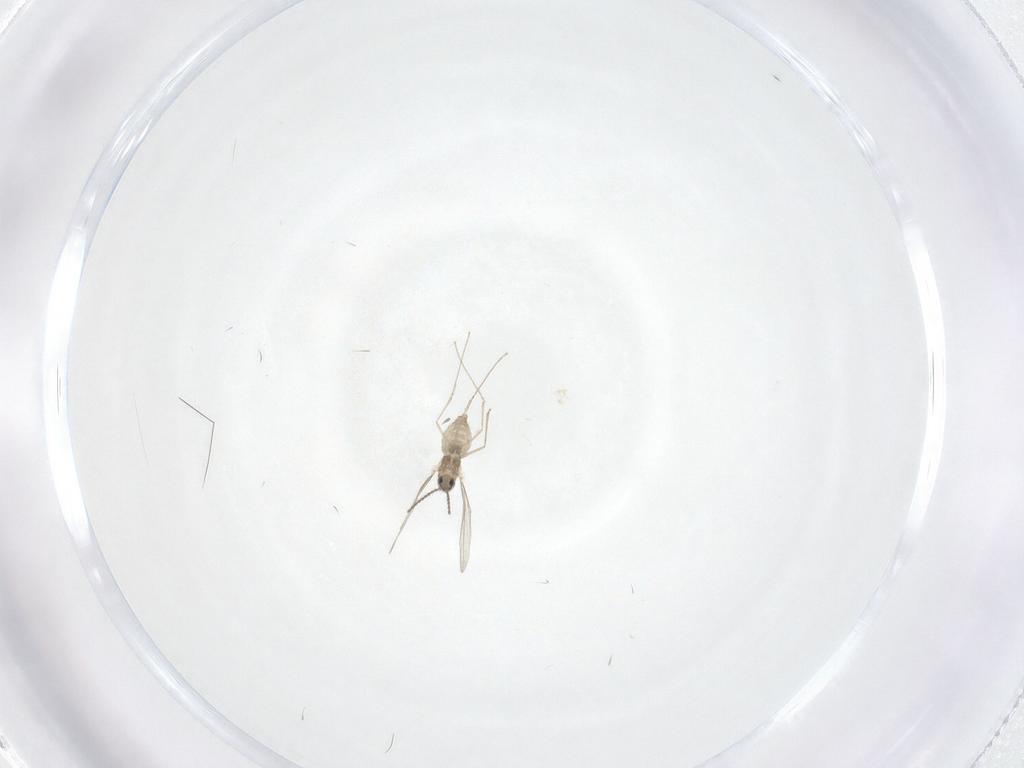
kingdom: Animalia
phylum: Arthropoda
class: Insecta
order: Diptera
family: Cecidomyiidae
